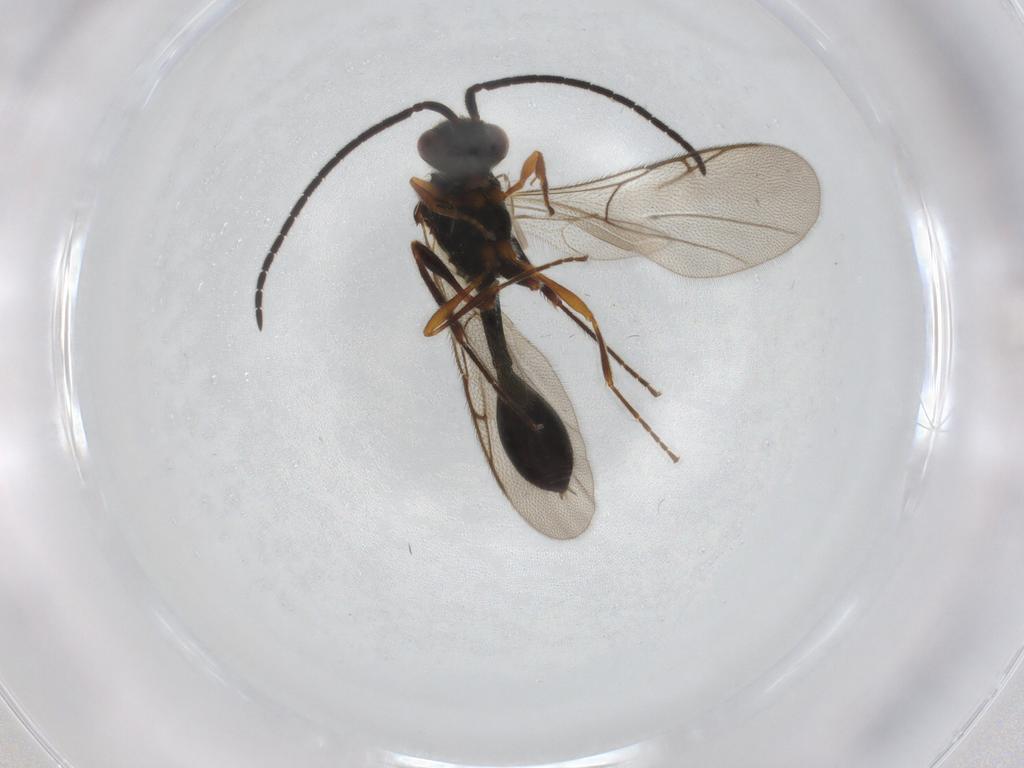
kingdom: Animalia
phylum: Arthropoda
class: Insecta
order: Hymenoptera
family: Diapriidae
